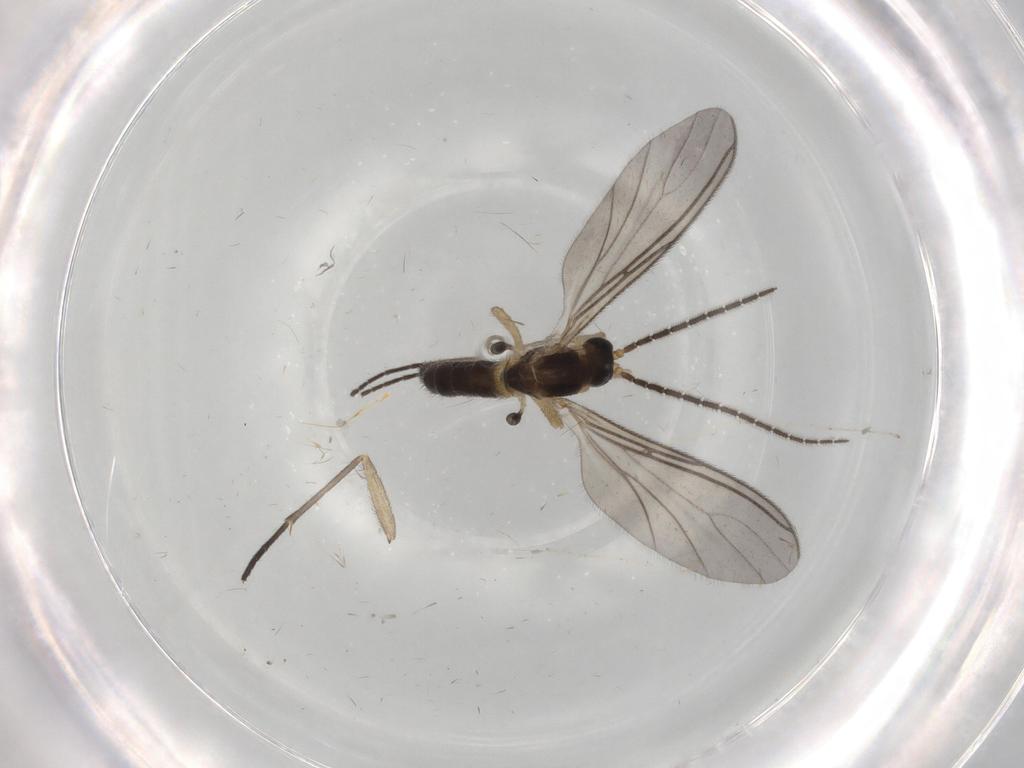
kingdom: Animalia
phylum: Arthropoda
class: Insecta
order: Diptera
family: Sciaridae
